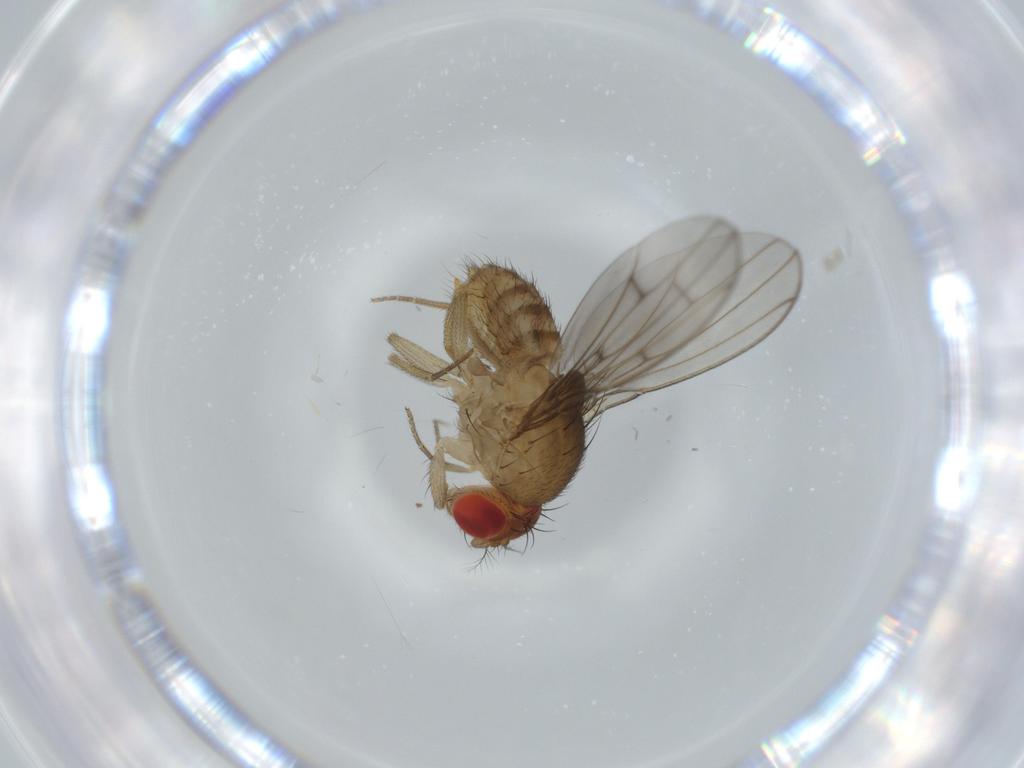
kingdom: Animalia
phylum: Arthropoda
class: Insecta
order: Diptera
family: Drosophilidae
